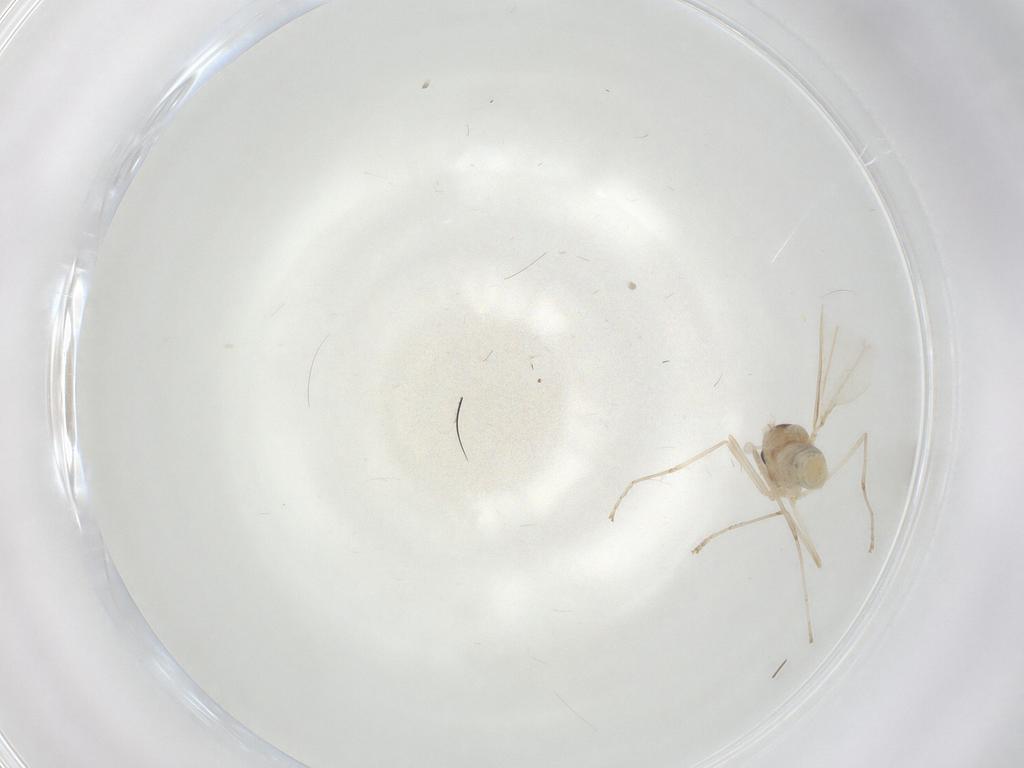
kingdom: Animalia
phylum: Arthropoda
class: Insecta
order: Diptera
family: Cecidomyiidae
